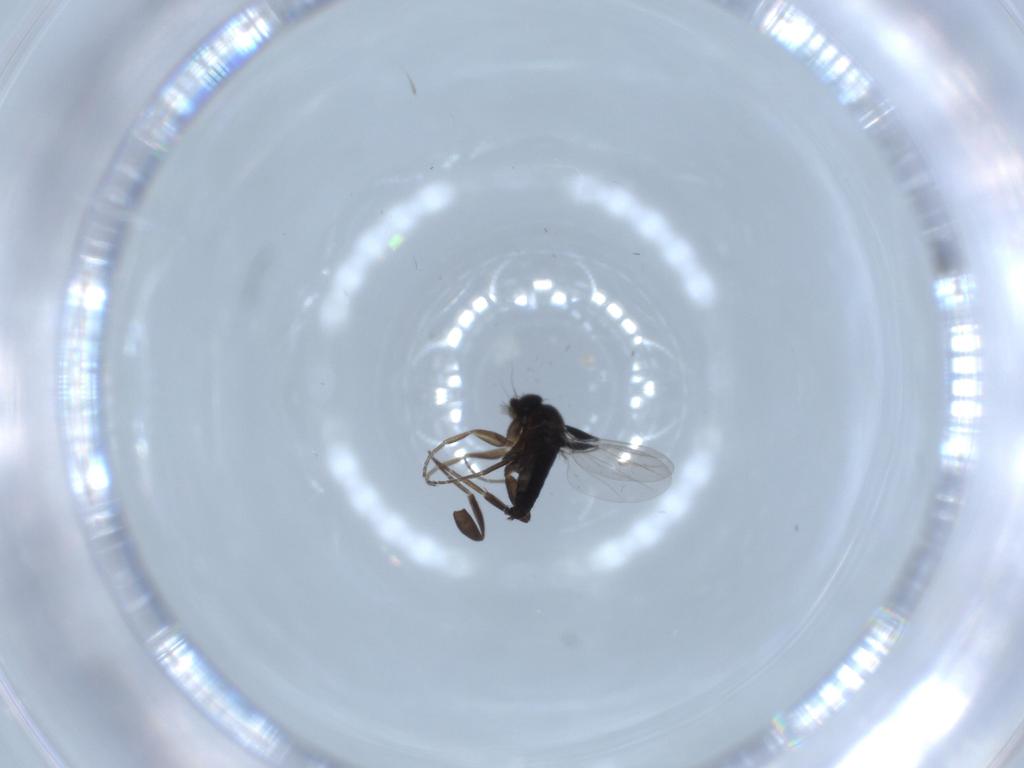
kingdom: Animalia
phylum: Arthropoda
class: Insecta
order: Diptera
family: Phoridae
